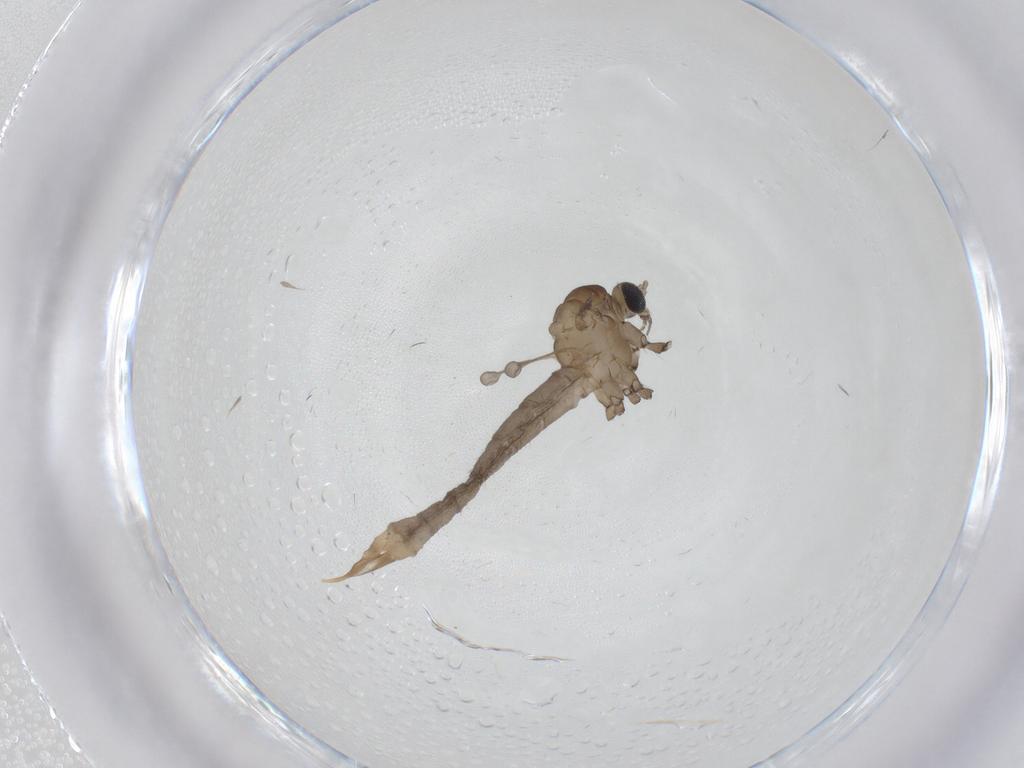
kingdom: Animalia
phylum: Arthropoda
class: Insecta
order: Diptera
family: Limoniidae
